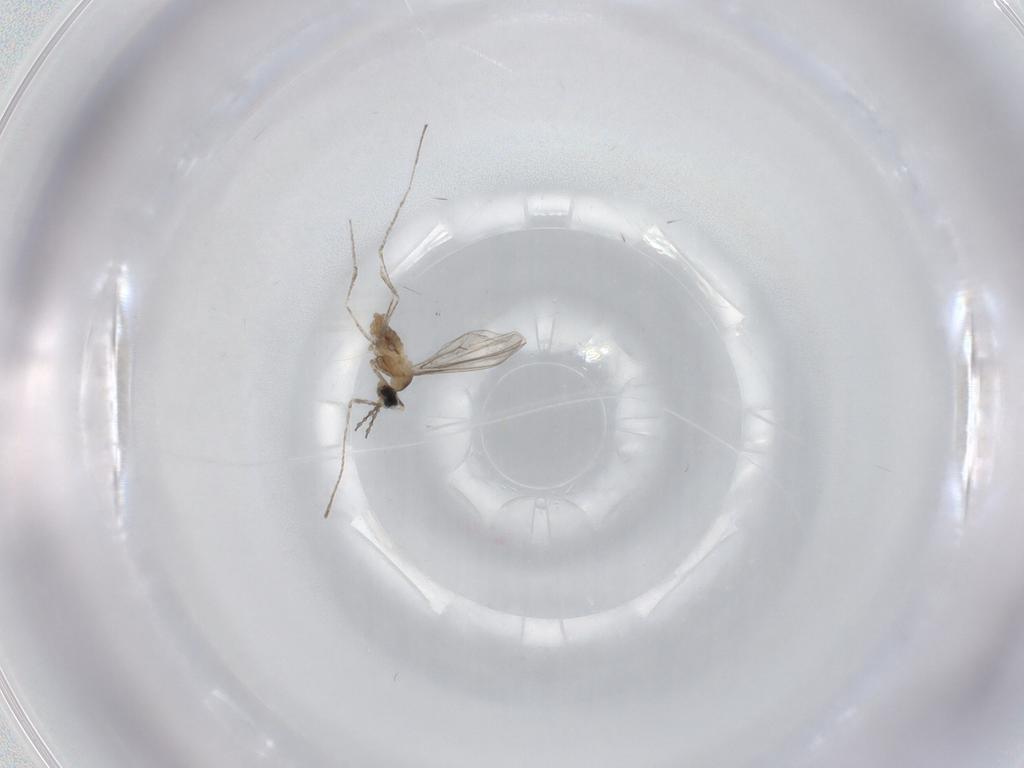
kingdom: Animalia
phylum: Arthropoda
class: Insecta
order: Diptera
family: Cecidomyiidae
